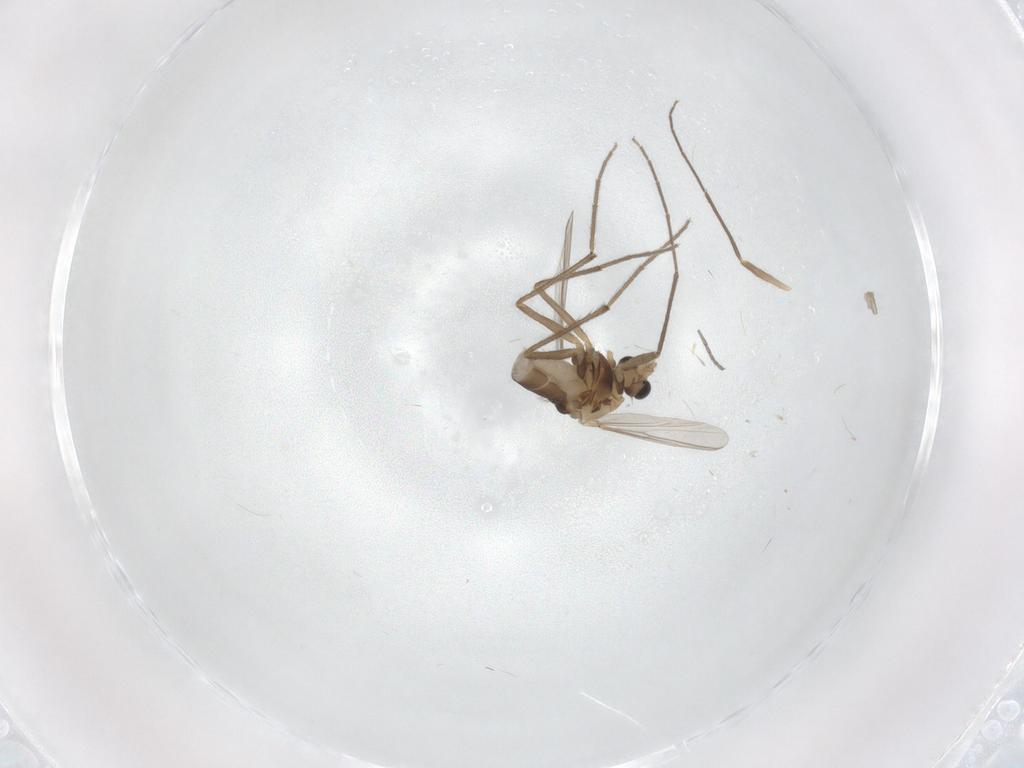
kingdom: Animalia
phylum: Arthropoda
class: Insecta
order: Diptera
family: Chironomidae
